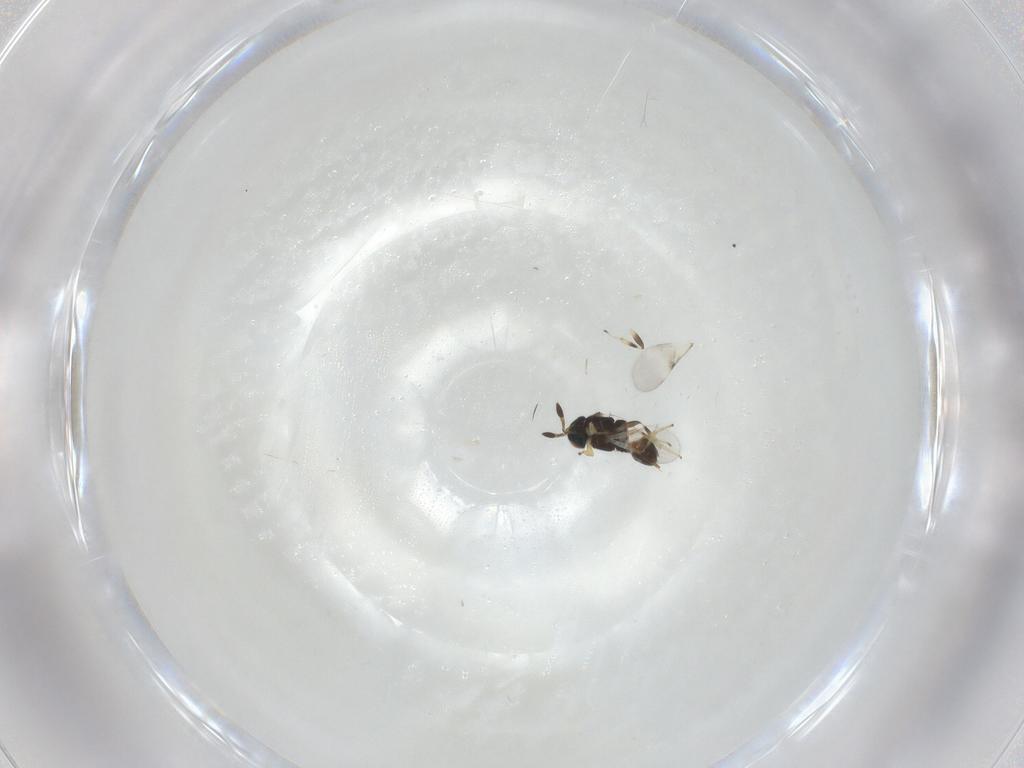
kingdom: Animalia
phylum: Arthropoda
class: Insecta
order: Hymenoptera
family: Encyrtidae
